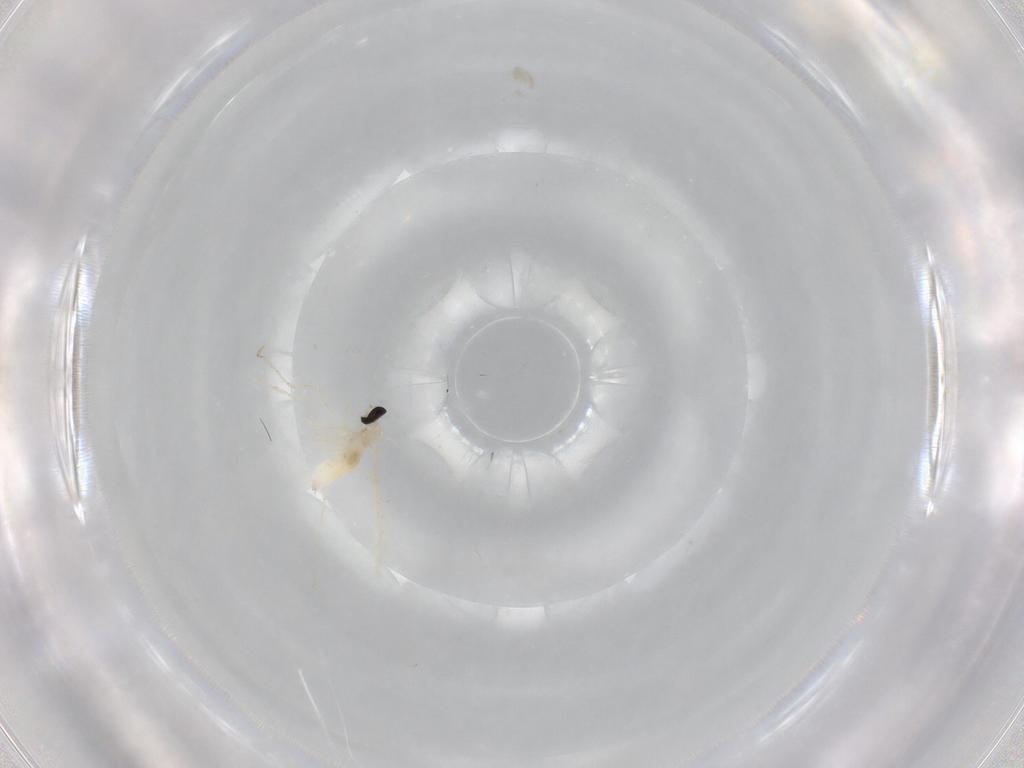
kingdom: Animalia
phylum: Arthropoda
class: Insecta
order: Diptera
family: Cecidomyiidae
